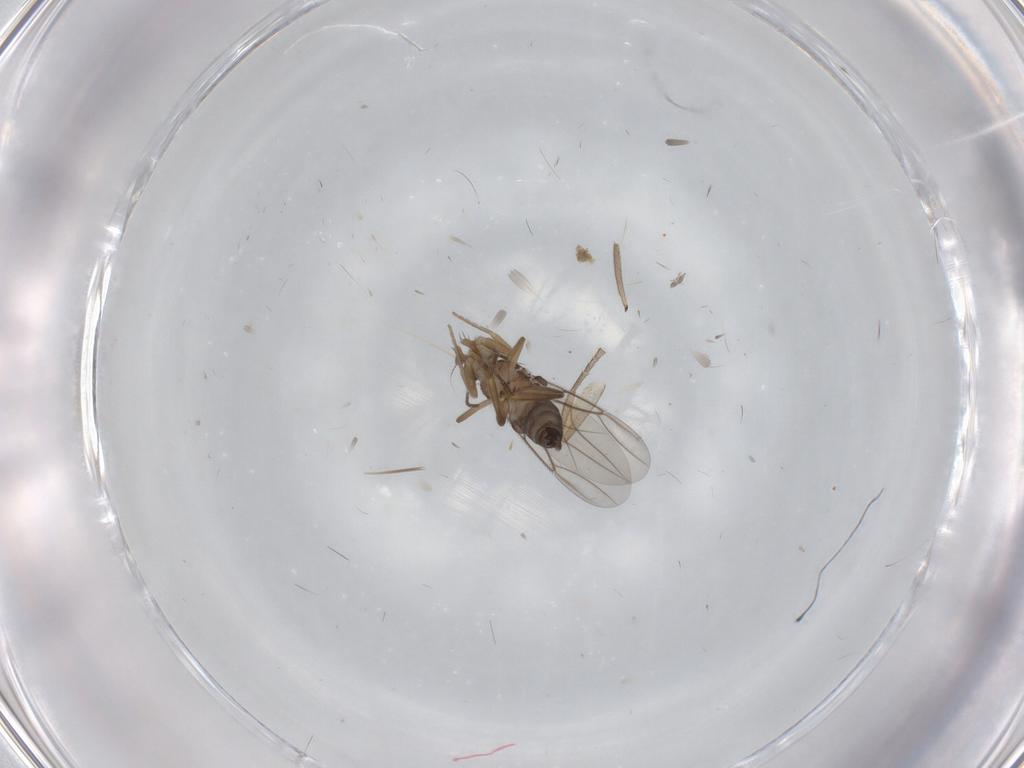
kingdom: Animalia
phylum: Arthropoda
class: Insecta
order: Diptera
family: Phoridae
